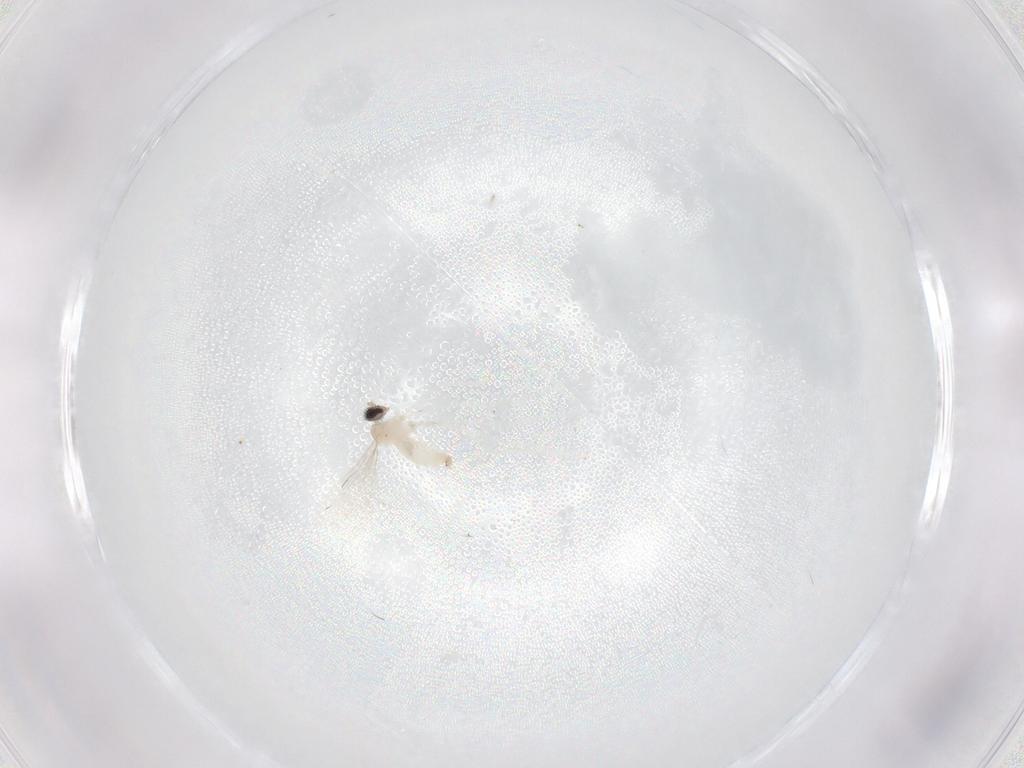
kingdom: Animalia
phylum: Arthropoda
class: Insecta
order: Diptera
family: Cecidomyiidae
